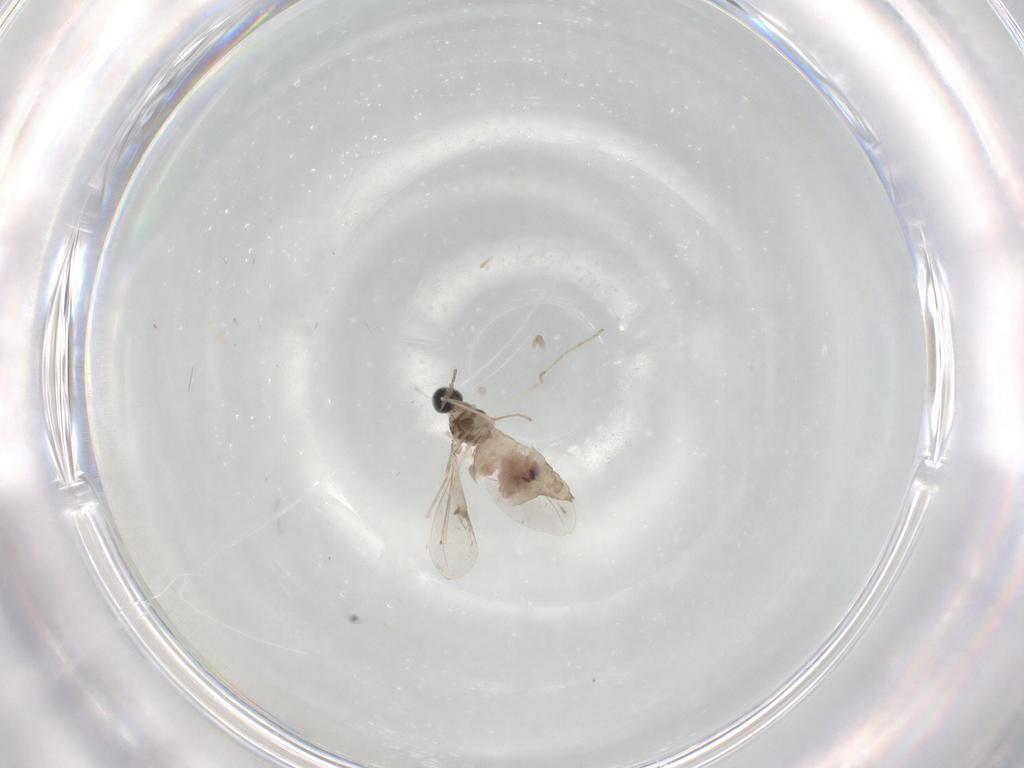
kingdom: Animalia
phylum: Arthropoda
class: Insecta
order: Diptera
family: Cecidomyiidae
